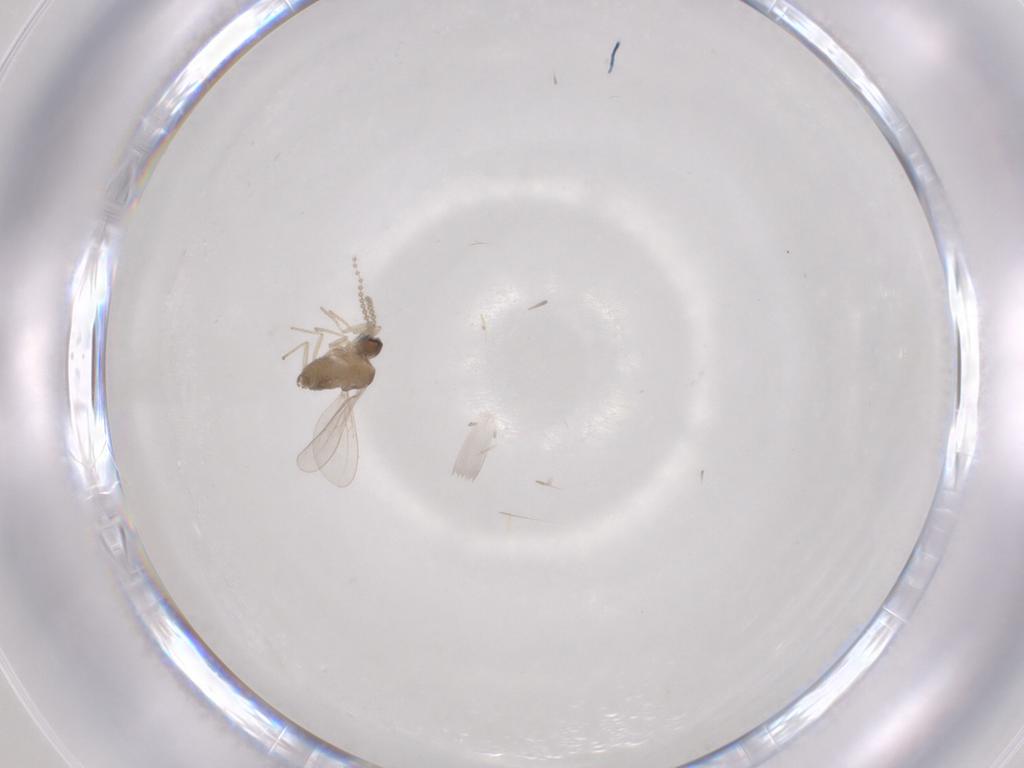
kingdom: Animalia
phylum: Arthropoda
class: Insecta
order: Diptera
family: Cecidomyiidae
